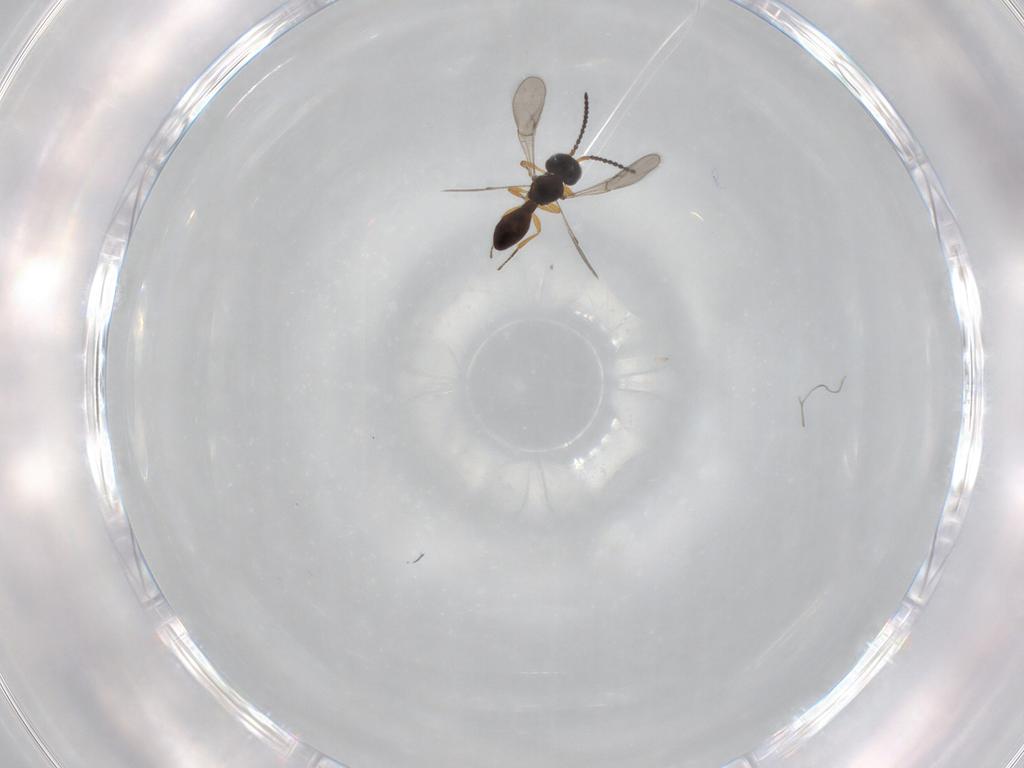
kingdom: Animalia
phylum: Arthropoda
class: Insecta
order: Hymenoptera
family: Scelionidae
